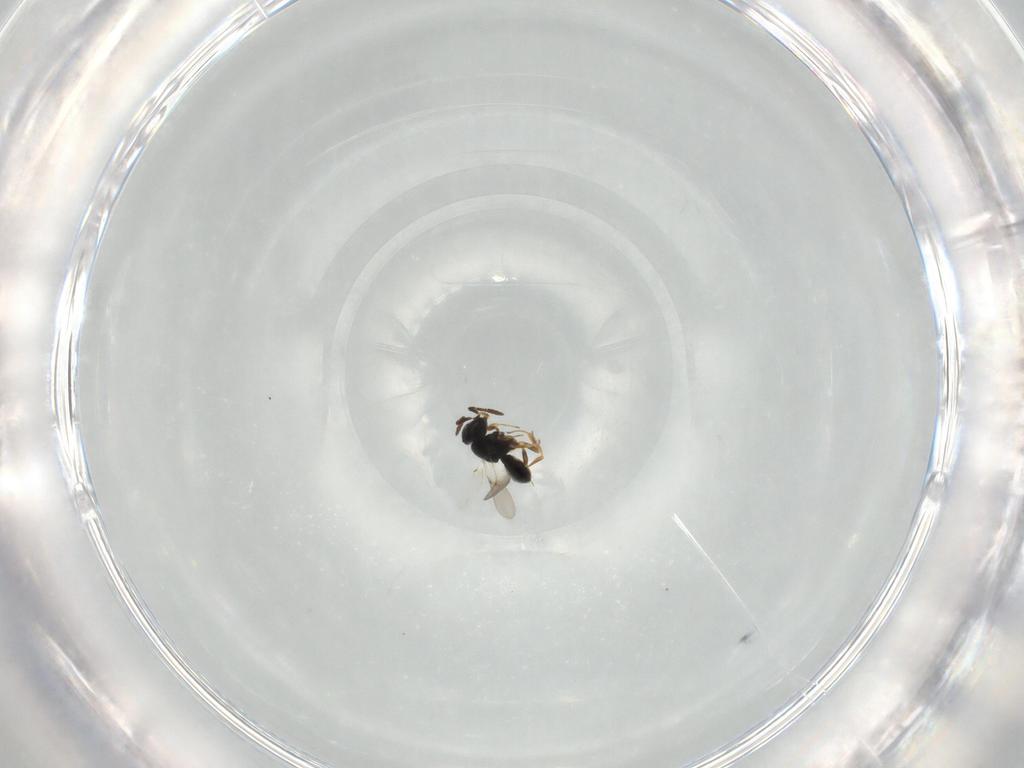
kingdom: Animalia
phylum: Arthropoda
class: Insecta
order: Hymenoptera
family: Scelionidae
